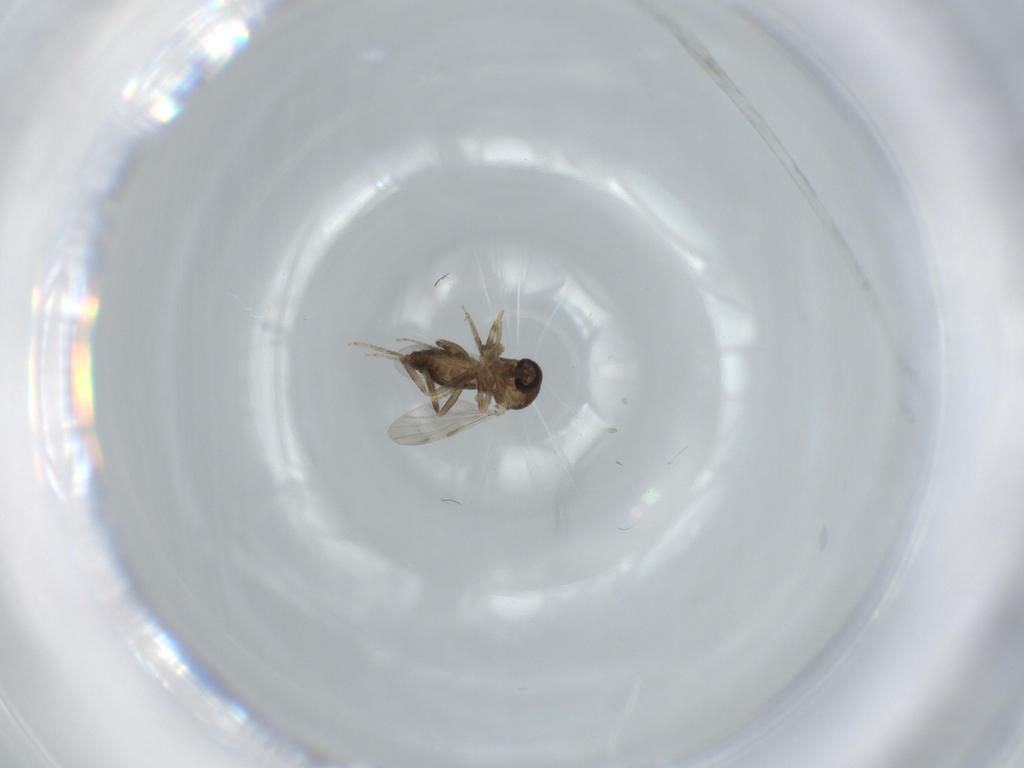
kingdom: Animalia
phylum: Arthropoda
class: Insecta
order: Diptera
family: Ceratopogonidae
